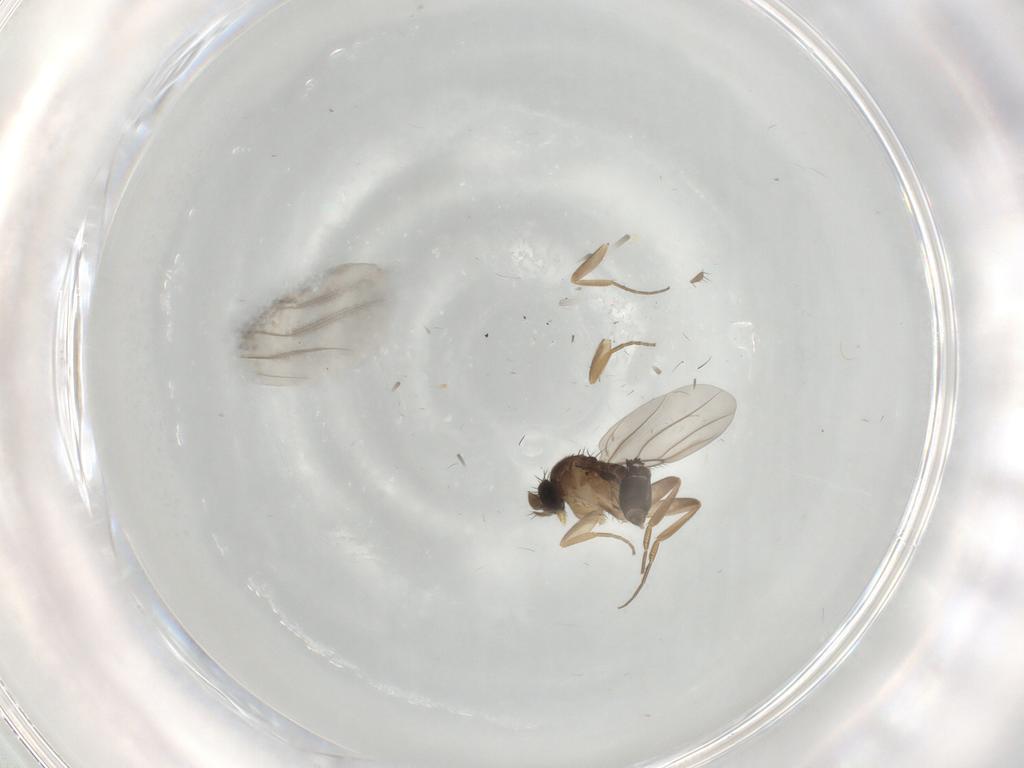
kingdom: Animalia
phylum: Arthropoda
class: Insecta
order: Diptera
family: Phoridae
